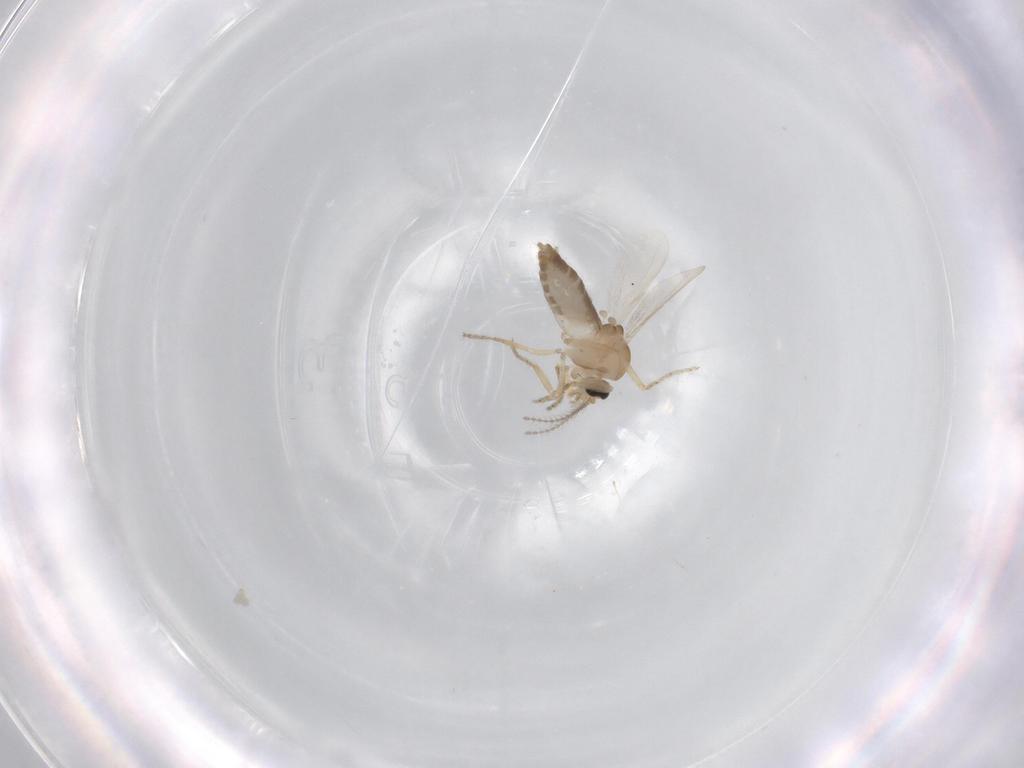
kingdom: Animalia
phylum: Arthropoda
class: Insecta
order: Diptera
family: Ceratopogonidae
